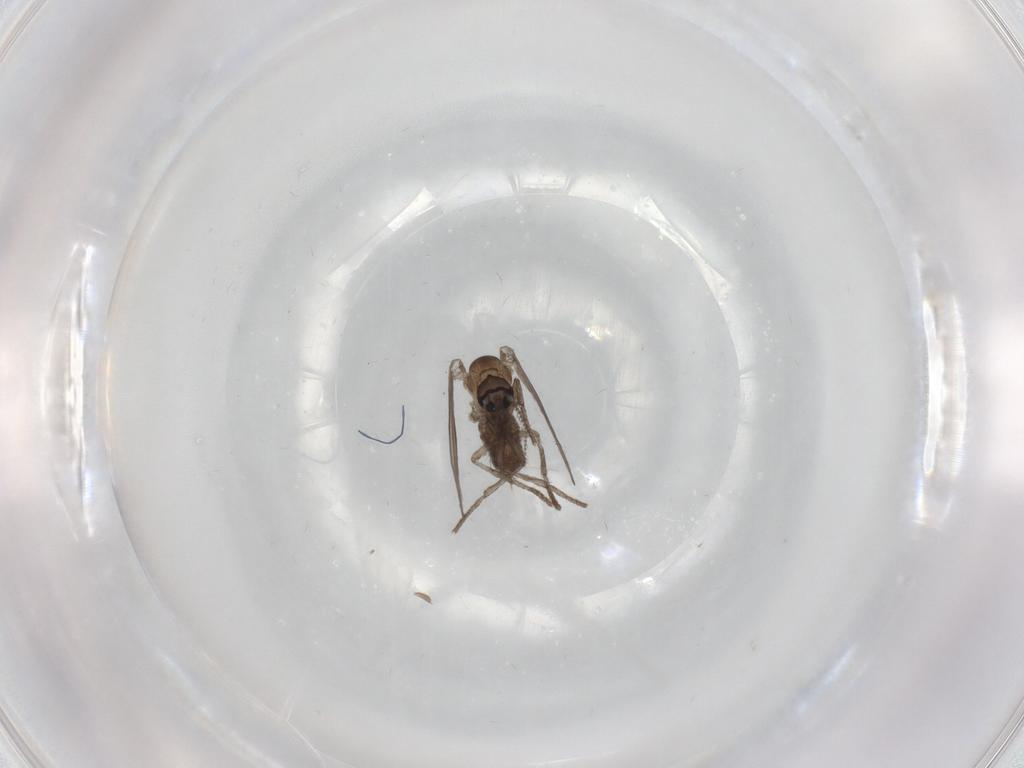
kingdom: Animalia
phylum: Arthropoda
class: Insecta
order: Diptera
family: Psychodidae
